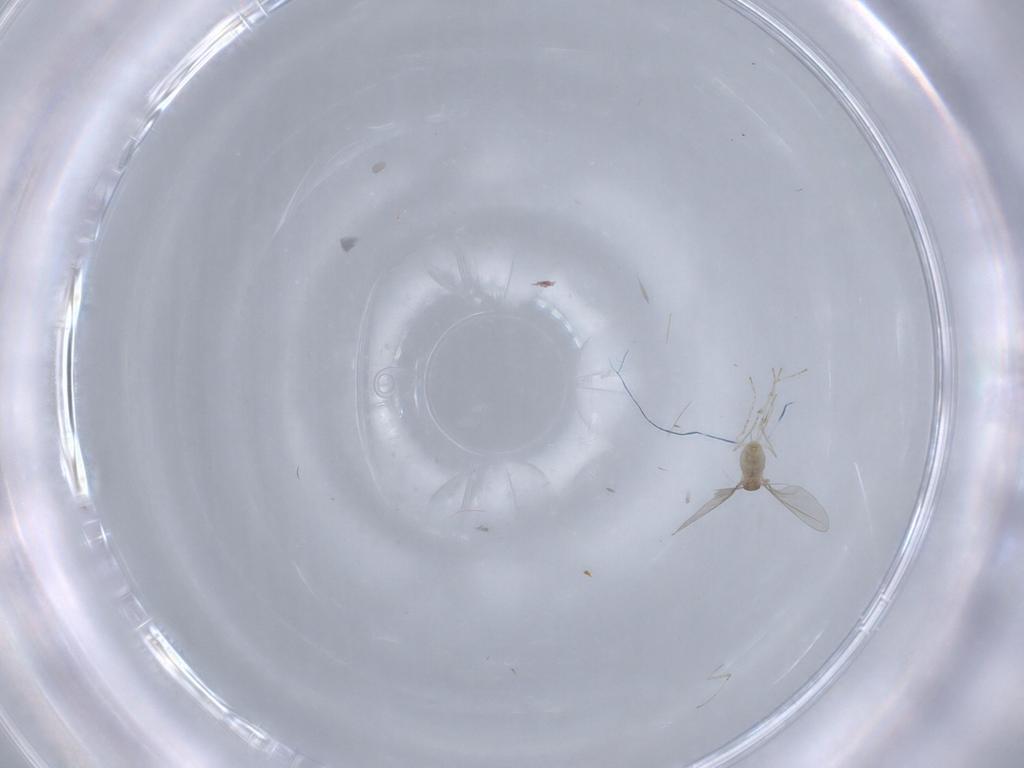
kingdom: Animalia
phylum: Arthropoda
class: Insecta
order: Diptera
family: Cecidomyiidae
